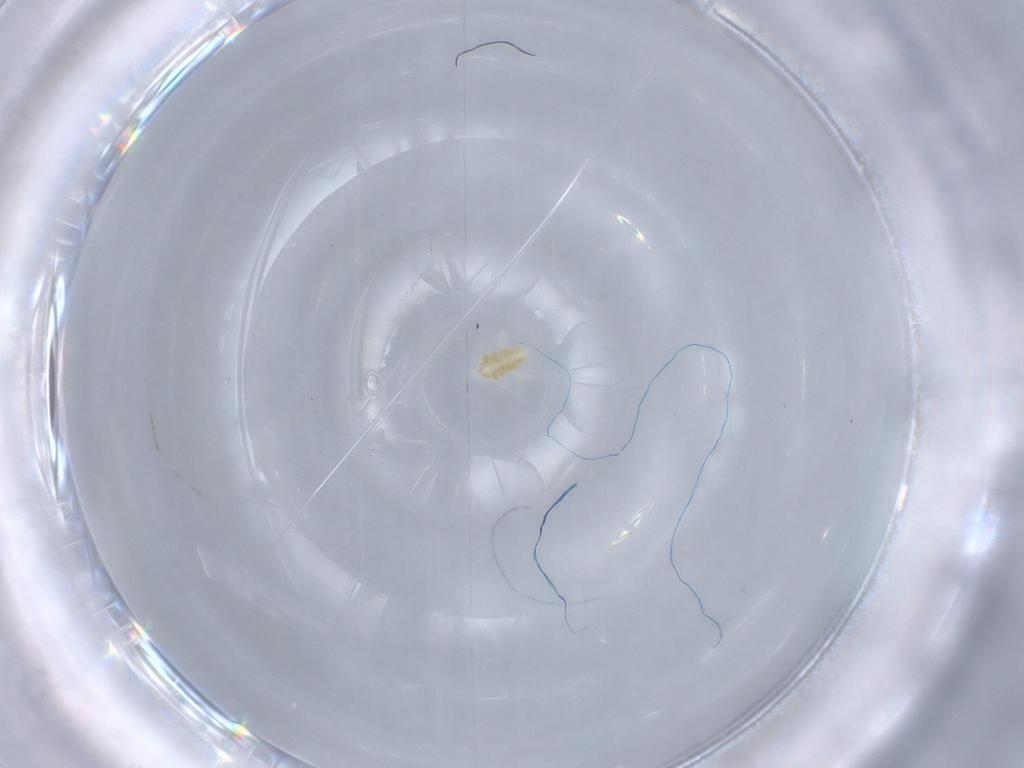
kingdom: Animalia
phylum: Arthropoda
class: Arachnida
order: Trombidiformes
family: Eupodidae
